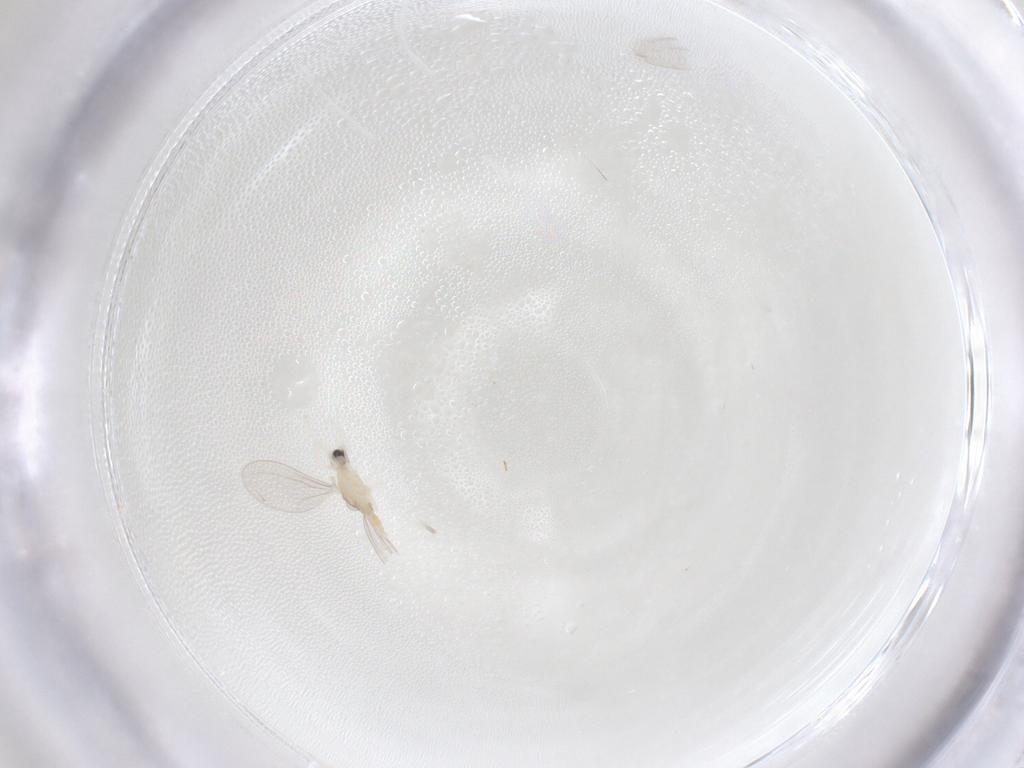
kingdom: Animalia
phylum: Arthropoda
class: Insecta
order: Diptera
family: Cecidomyiidae
